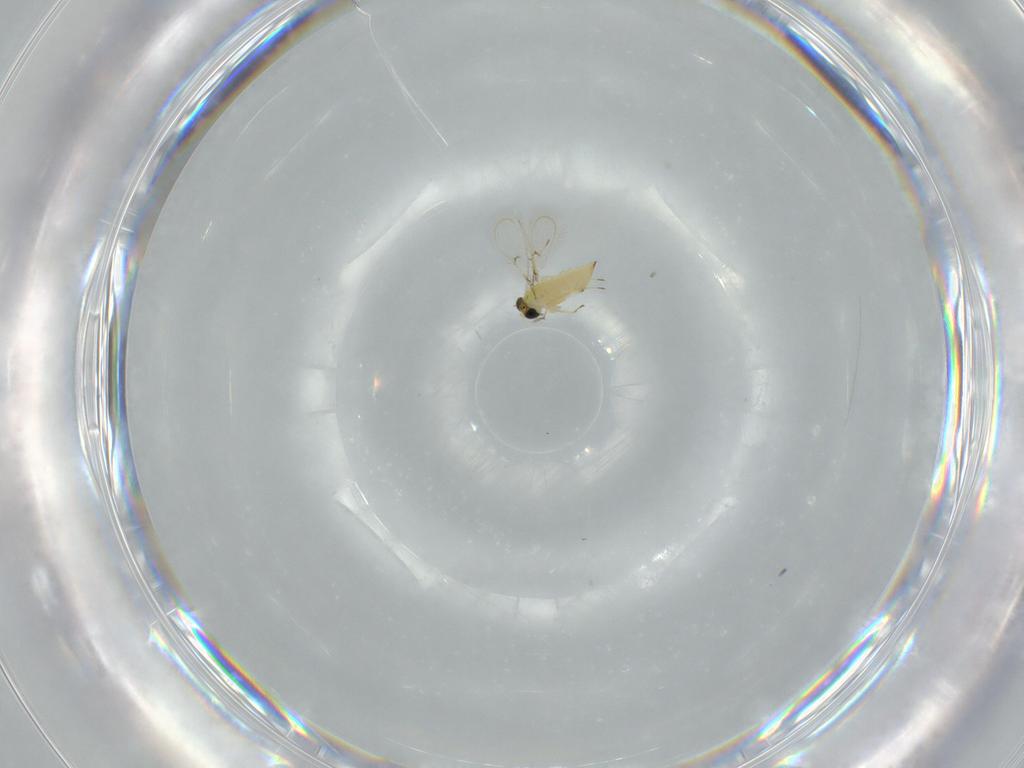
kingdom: Animalia
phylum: Arthropoda
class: Insecta
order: Hymenoptera
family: Trichogrammatidae
